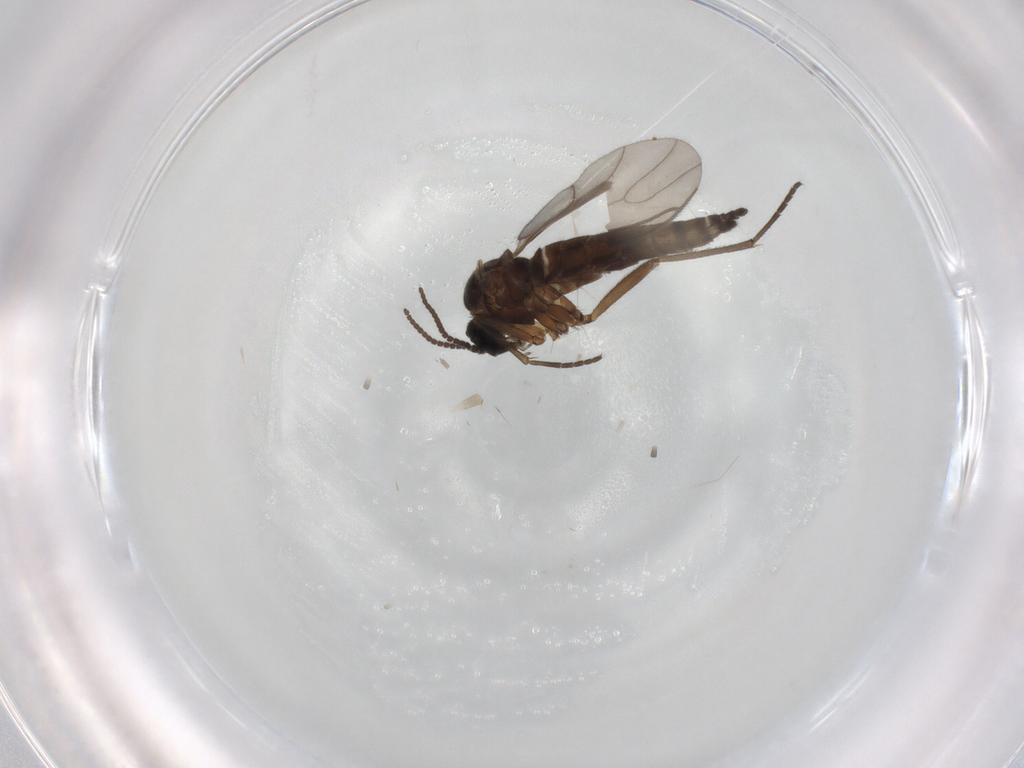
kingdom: Animalia
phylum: Arthropoda
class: Insecta
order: Diptera
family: Sciaridae
